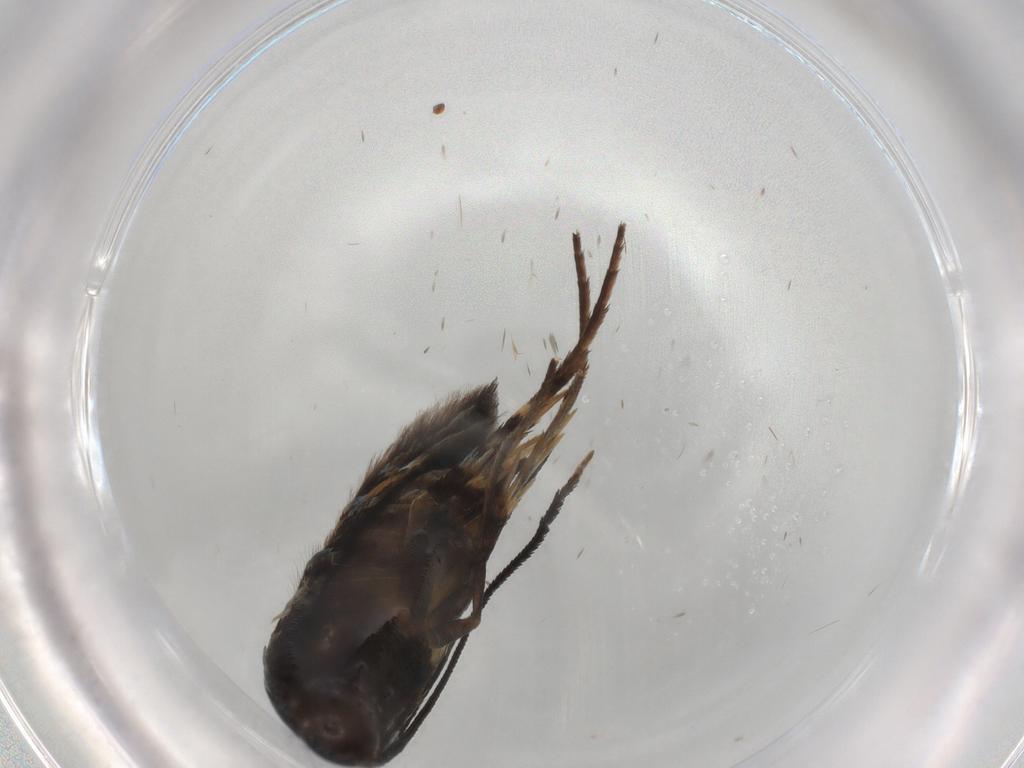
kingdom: Animalia
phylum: Arthropoda
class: Insecta
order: Lepidoptera
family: Heliodinidae
